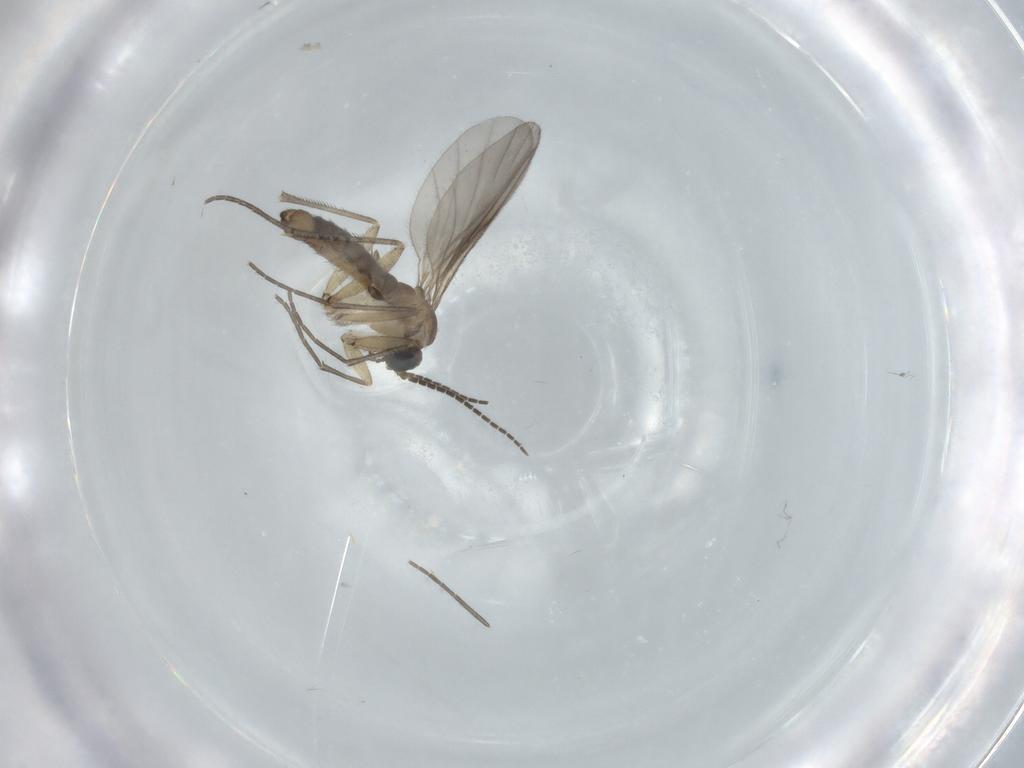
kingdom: Animalia
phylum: Arthropoda
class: Insecta
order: Diptera
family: Sciaridae
